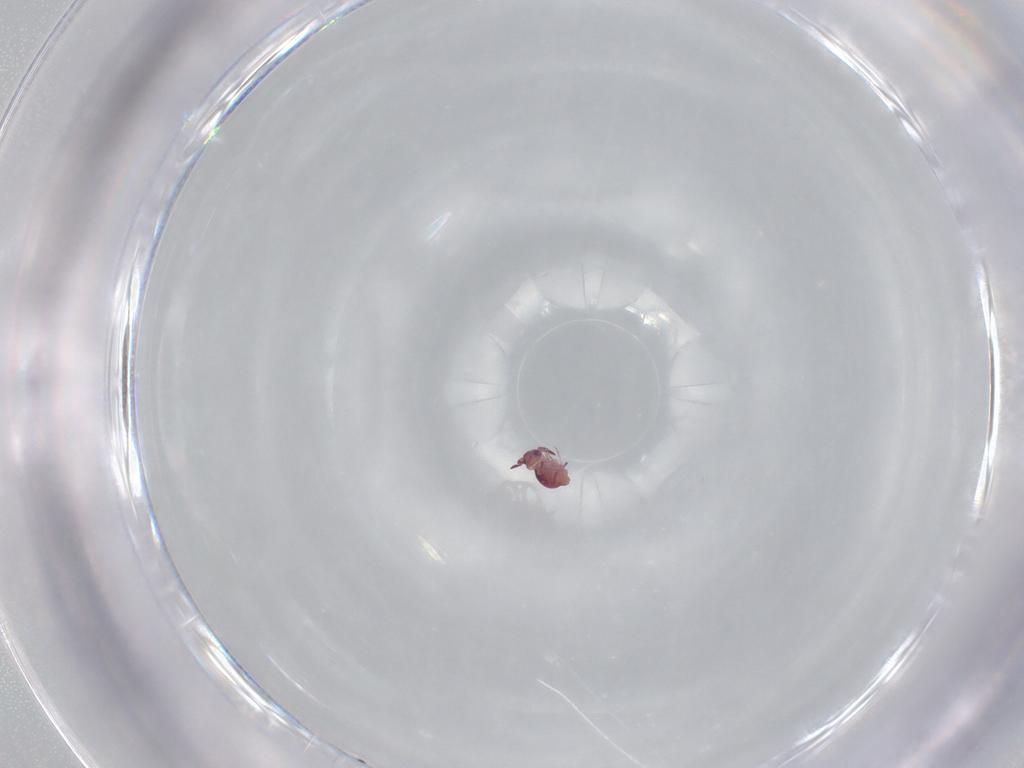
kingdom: Animalia
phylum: Arthropoda
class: Collembola
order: Symphypleona
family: Sminthurididae
